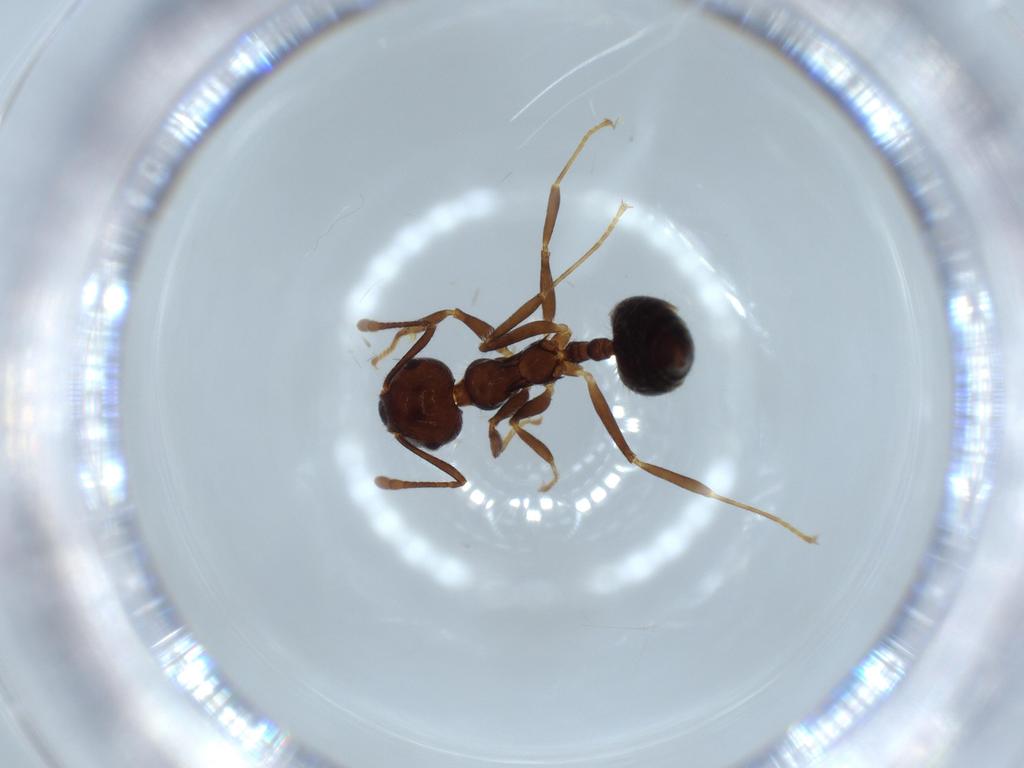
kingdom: Animalia
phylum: Arthropoda
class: Insecta
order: Hymenoptera
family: Formicidae
